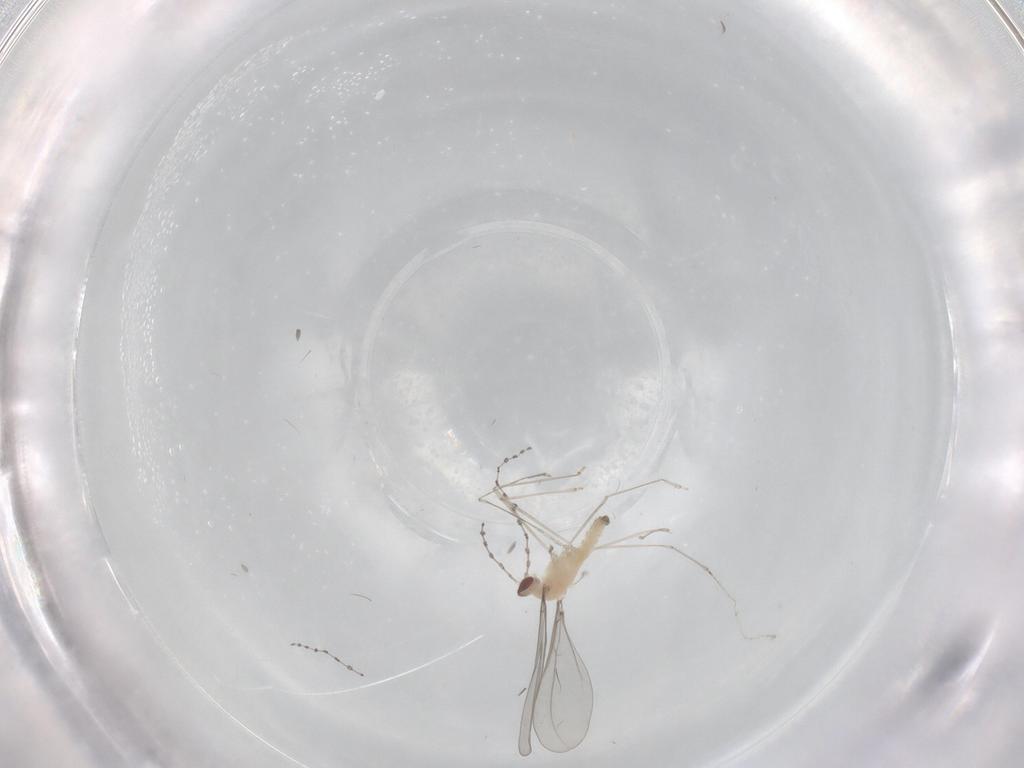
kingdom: Animalia
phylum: Arthropoda
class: Insecta
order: Diptera
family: Cecidomyiidae
